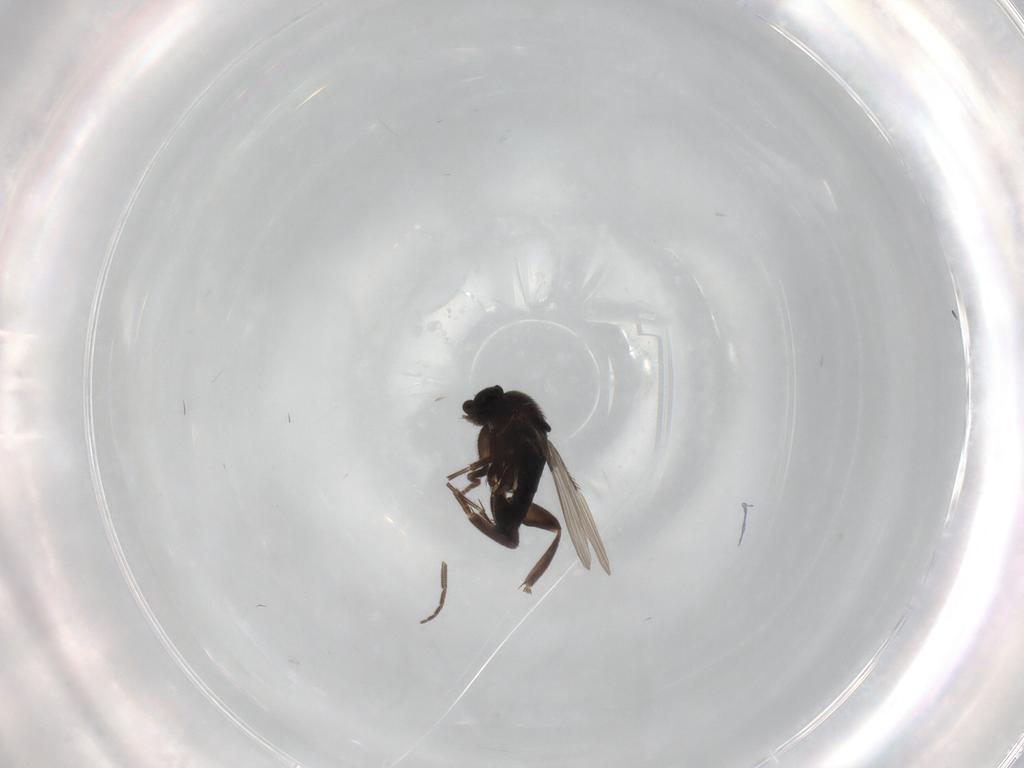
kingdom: Animalia
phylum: Arthropoda
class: Insecta
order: Diptera
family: Phoridae
